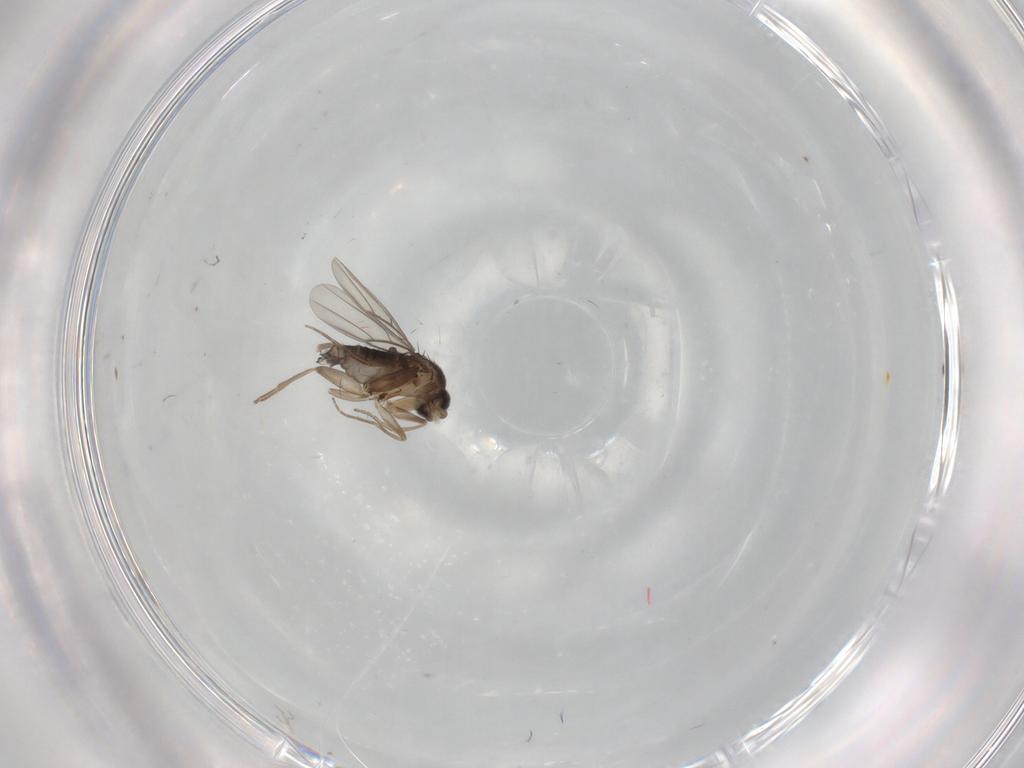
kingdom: Animalia
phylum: Arthropoda
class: Insecta
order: Diptera
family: Phoridae
